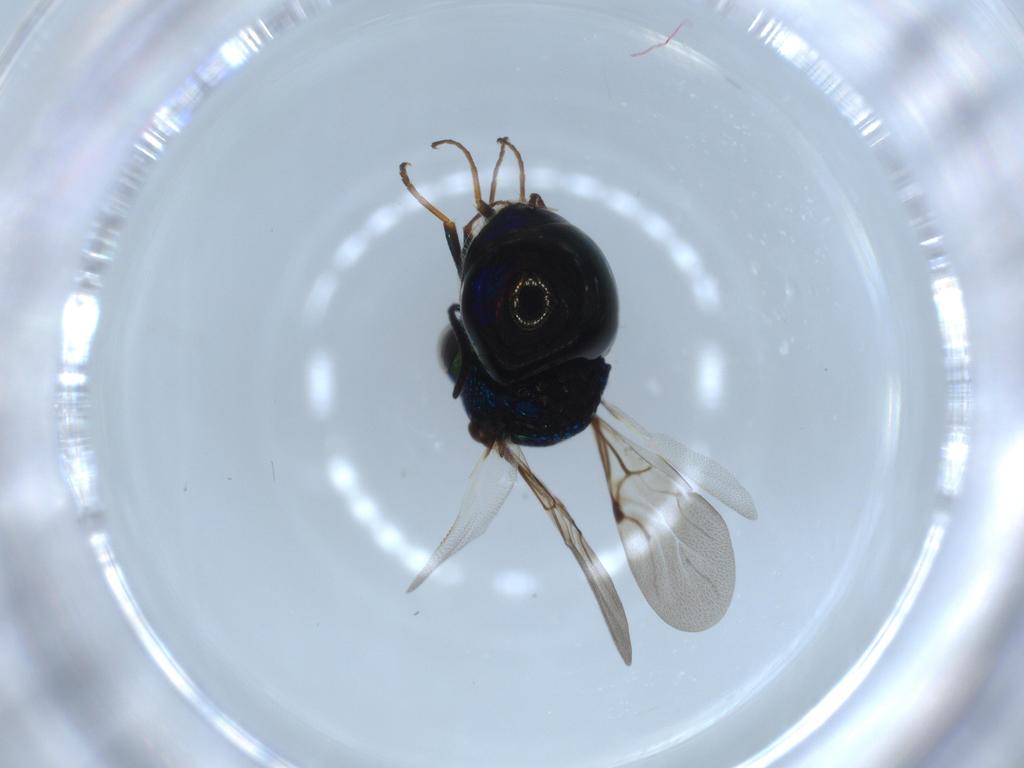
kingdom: Animalia
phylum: Arthropoda
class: Insecta
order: Hymenoptera
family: Chrysididae
